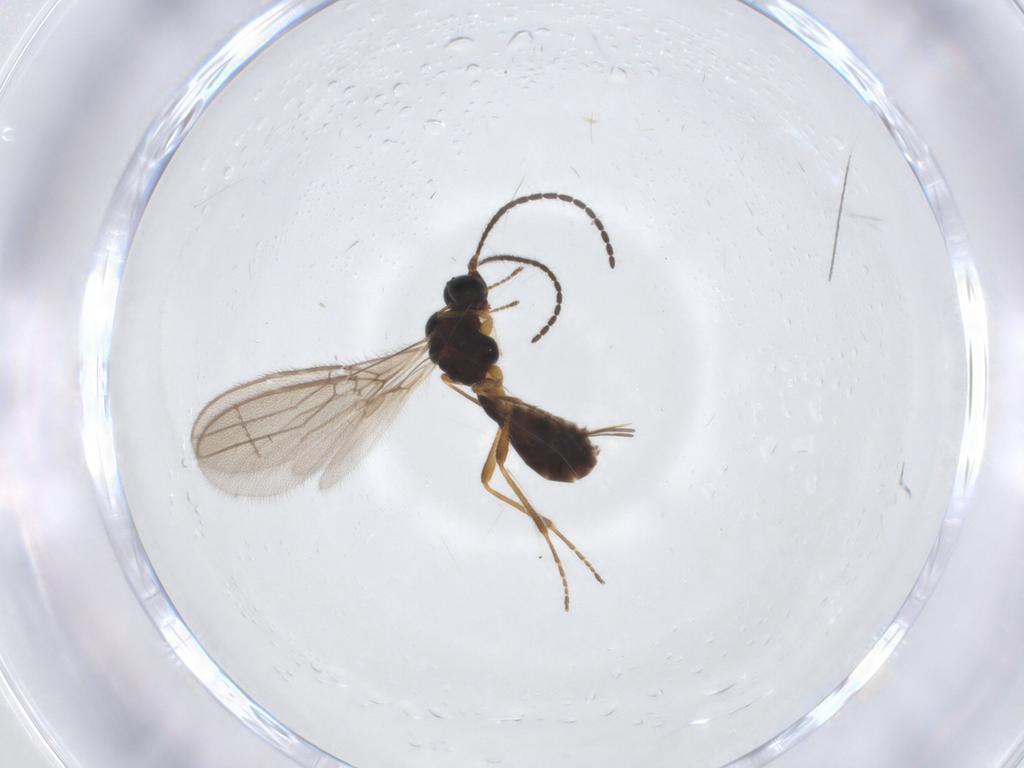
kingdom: Animalia
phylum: Arthropoda
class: Insecta
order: Hymenoptera
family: Braconidae
